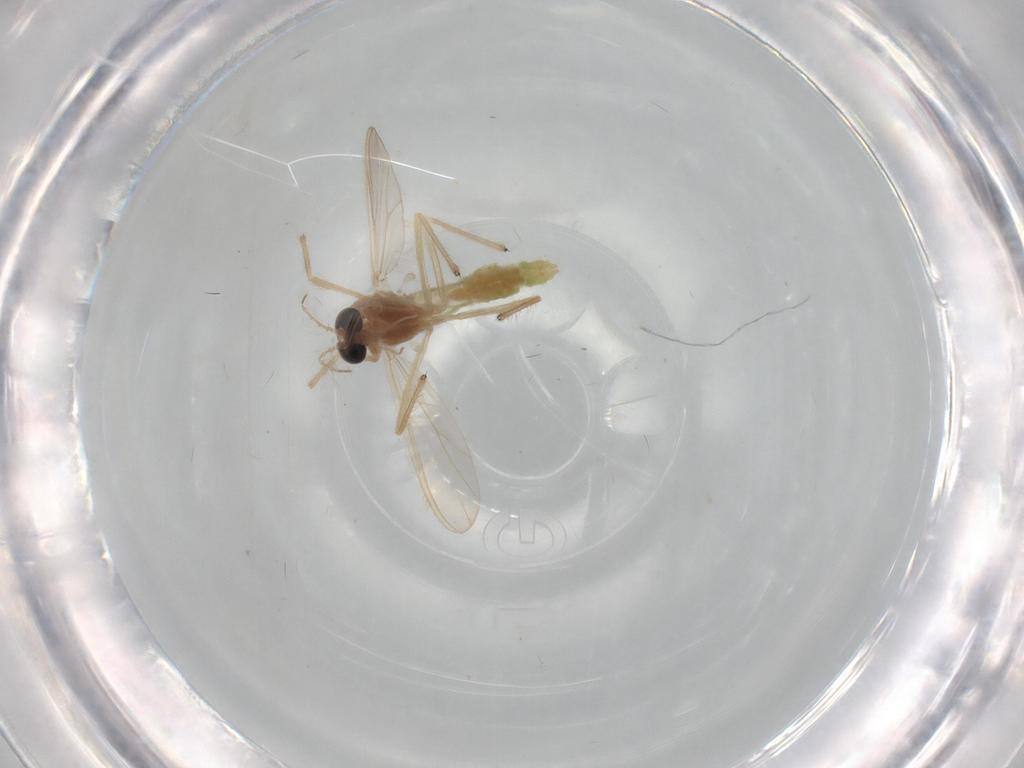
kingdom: Animalia
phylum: Arthropoda
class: Insecta
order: Diptera
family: Chironomidae
